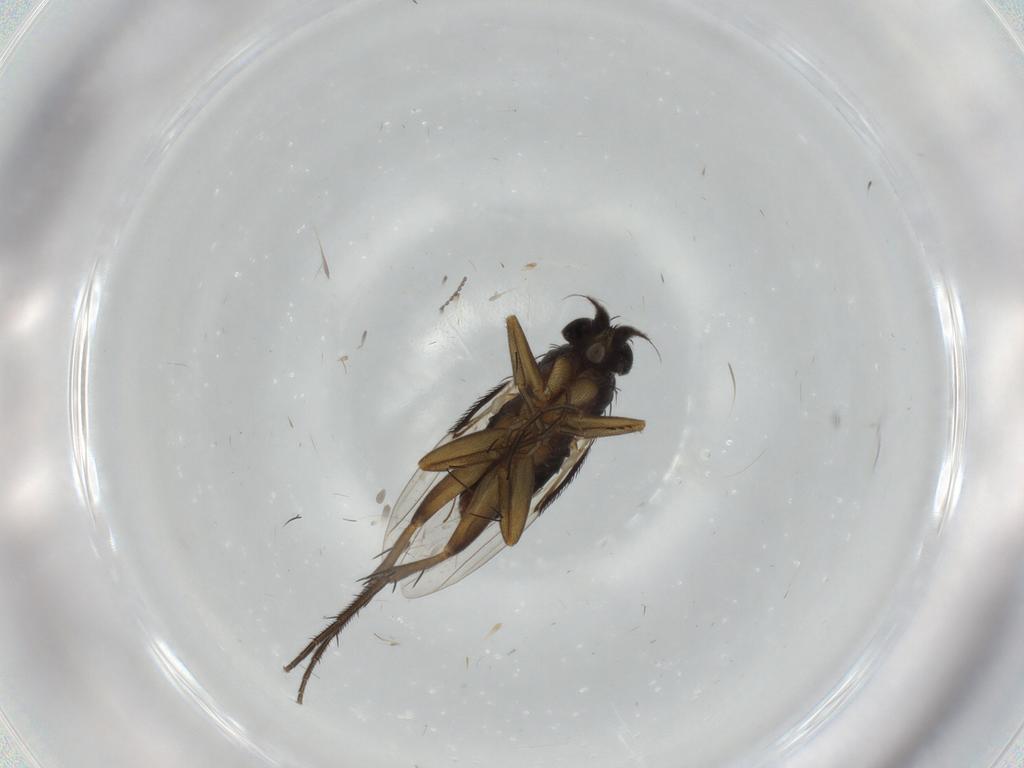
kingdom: Animalia
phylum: Arthropoda
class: Insecta
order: Diptera
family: Phoridae
